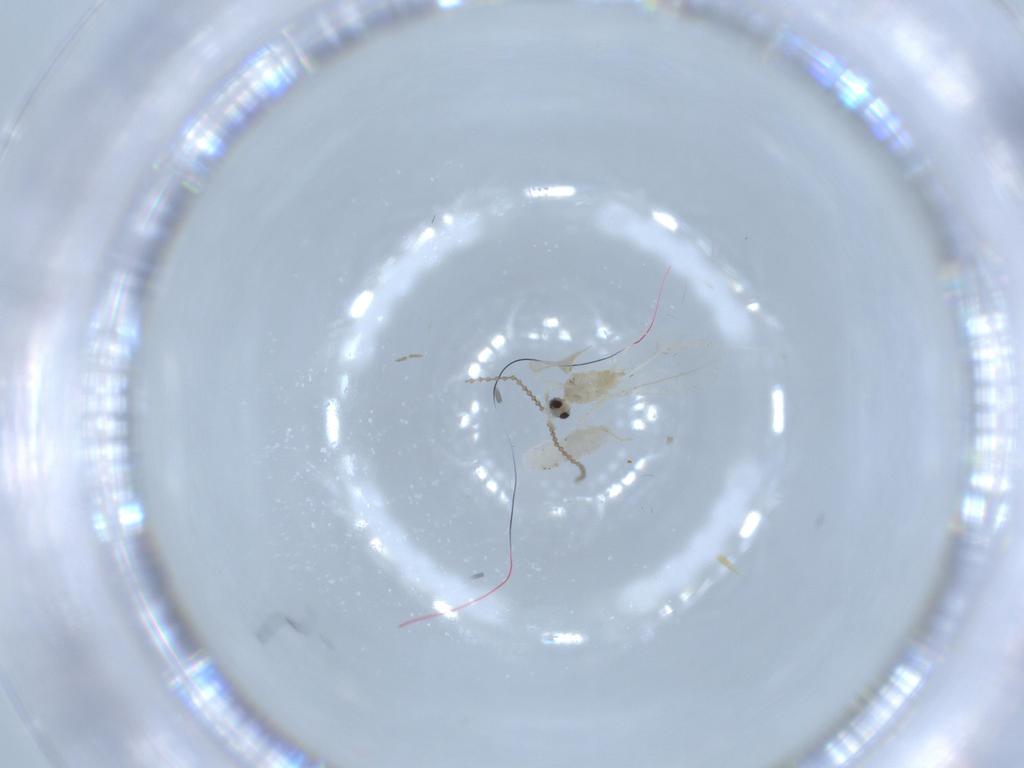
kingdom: Animalia
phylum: Arthropoda
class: Insecta
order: Diptera
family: Cecidomyiidae
